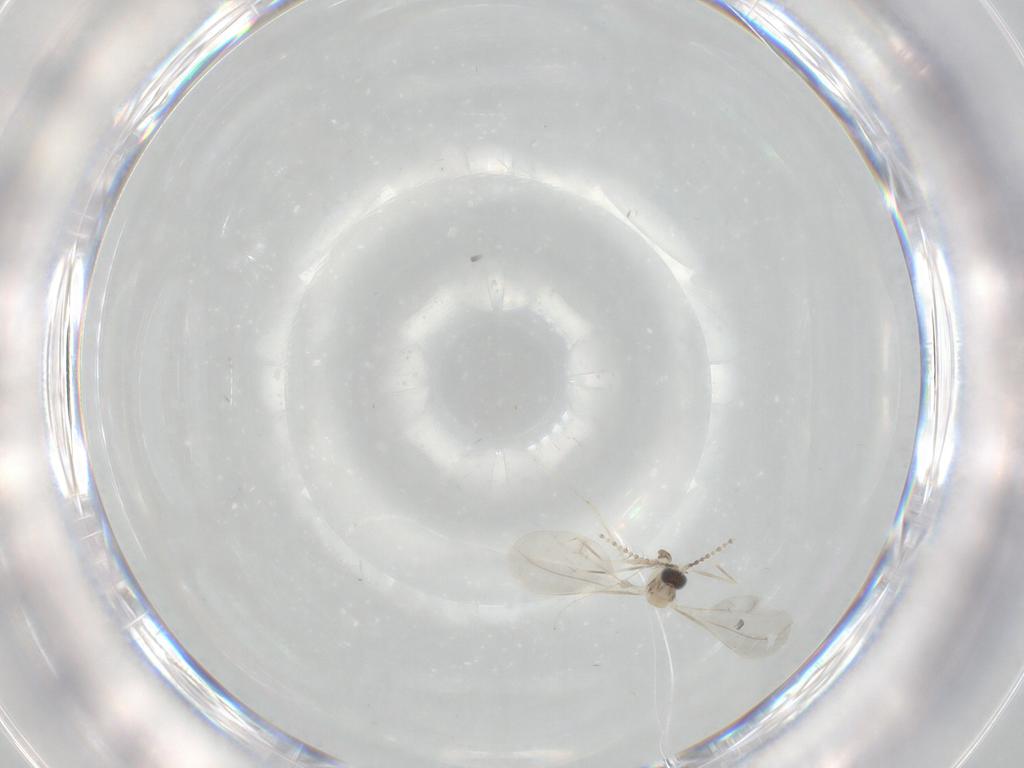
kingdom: Animalia
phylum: Arthropoda
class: Insecta
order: Diptera
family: Cecidomyiidae
